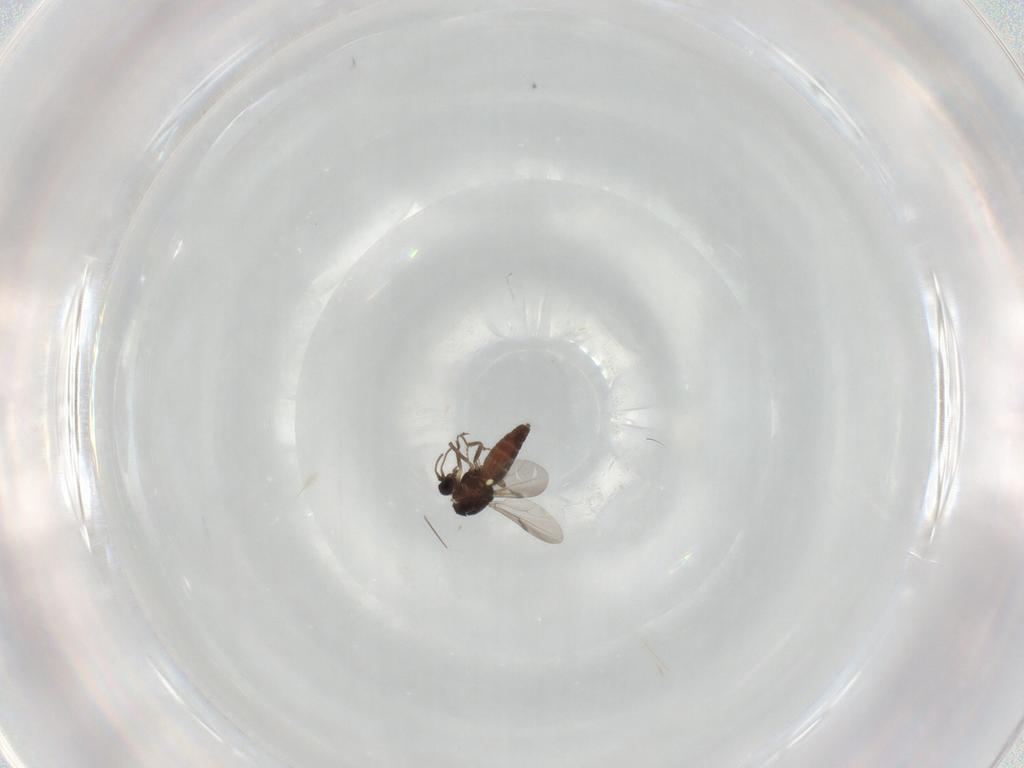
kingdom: Animalia
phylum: Arthropoda
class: Insecta
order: Diptera
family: Ceratopogonidae
